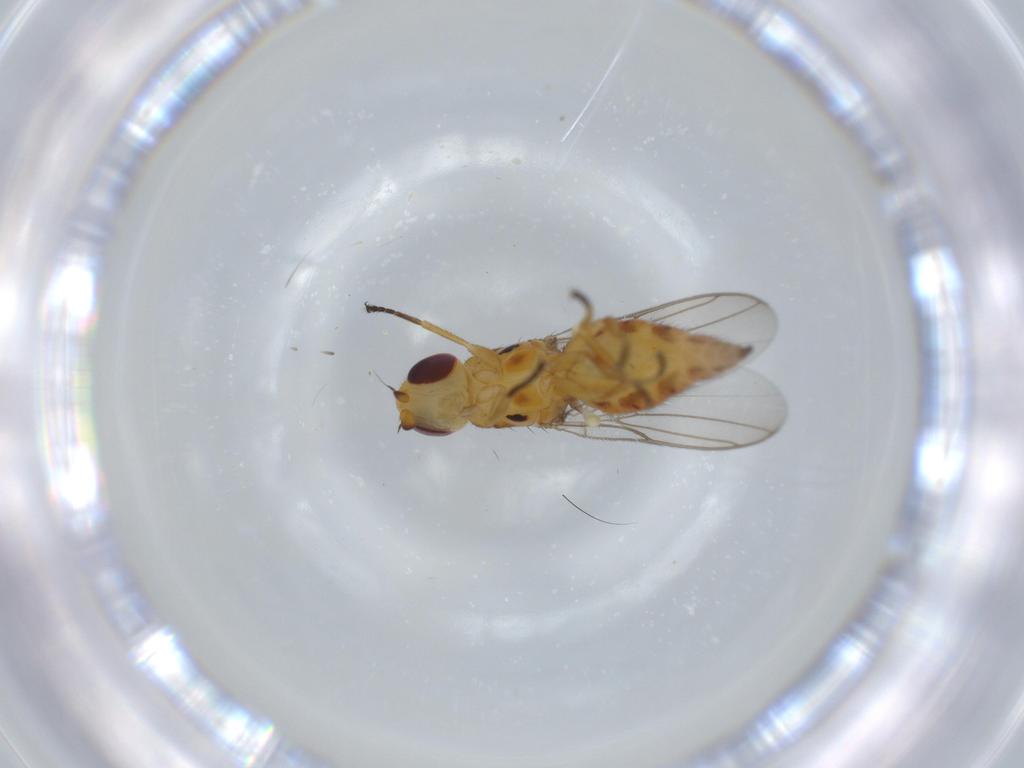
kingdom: Animalia
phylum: Arthropoda
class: Insecta
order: Diptera
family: Chloropidae
